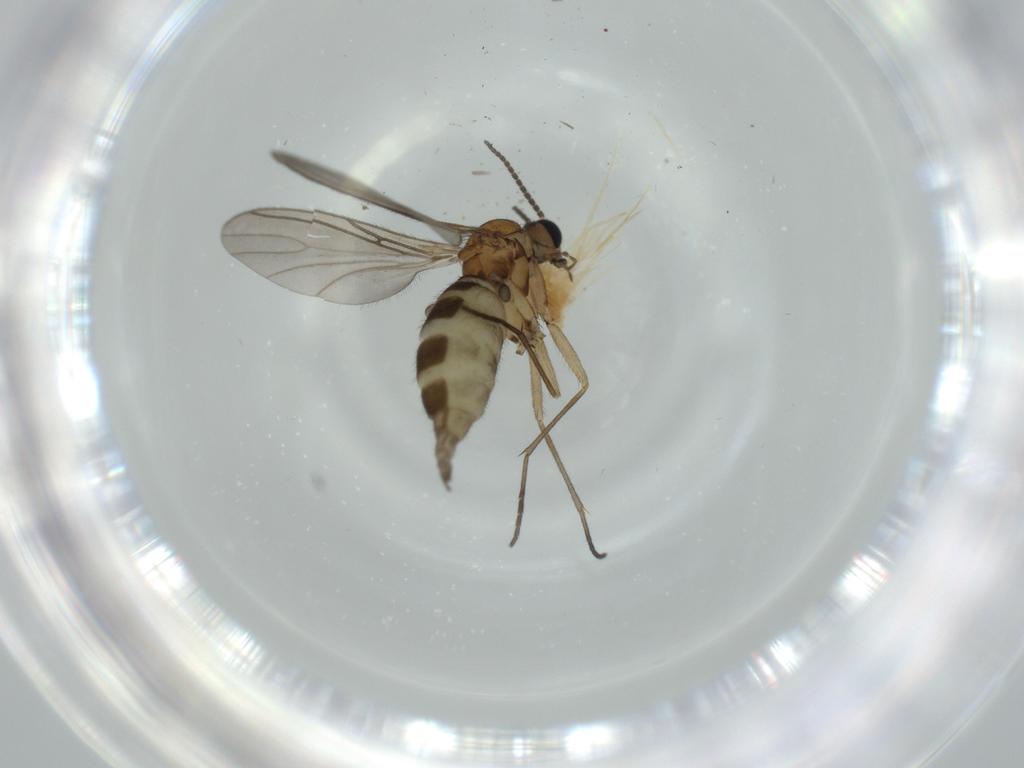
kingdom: Animalia
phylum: Arthropoda
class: Insecta
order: Diptera
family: Sciaridae
